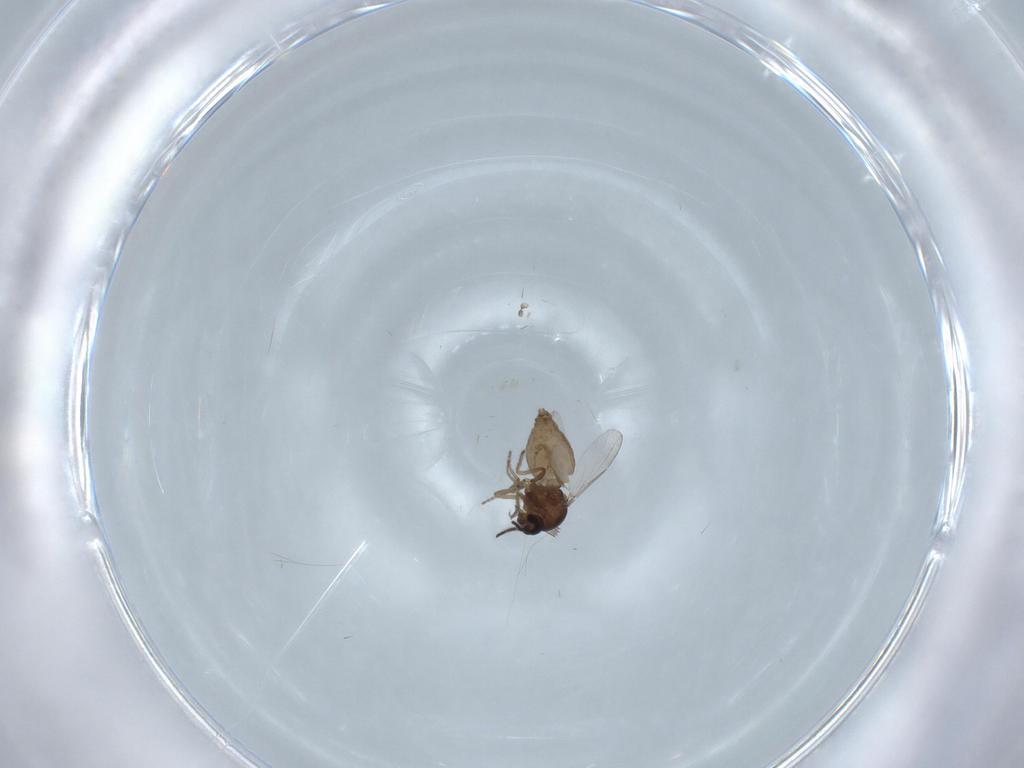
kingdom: Animalia
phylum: Arthropoda
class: Insecta
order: Diptera
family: Ceratopogonidae
